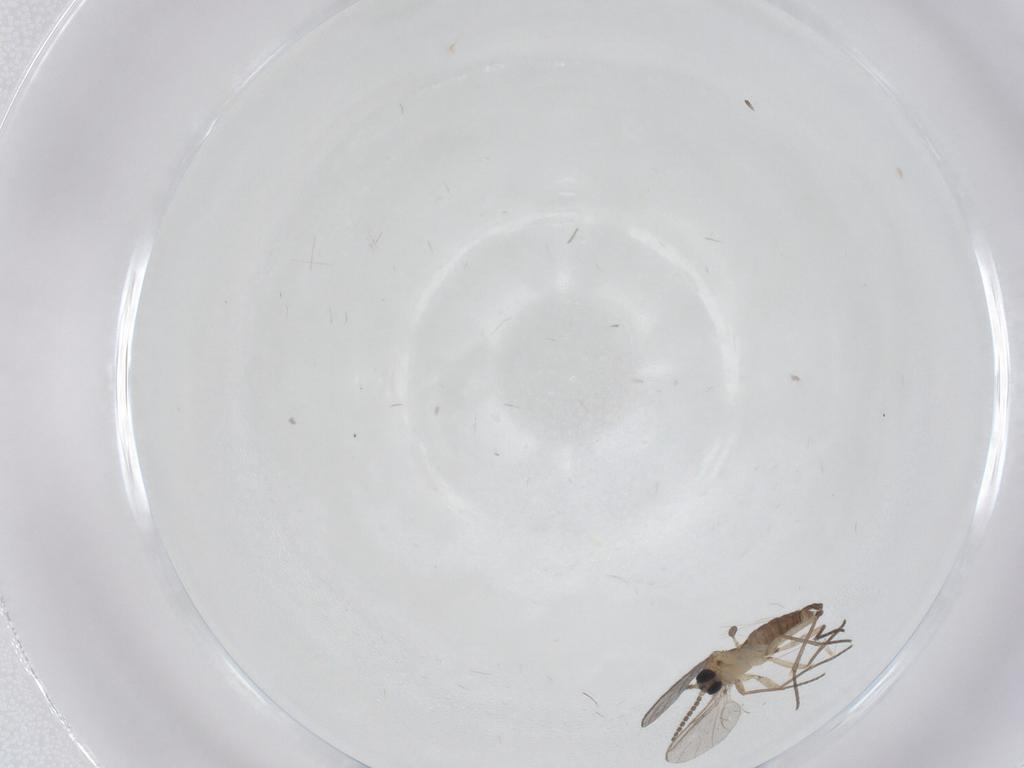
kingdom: Animalia
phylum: Arthropoda
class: Insecta
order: Diptera
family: Sciaridae
